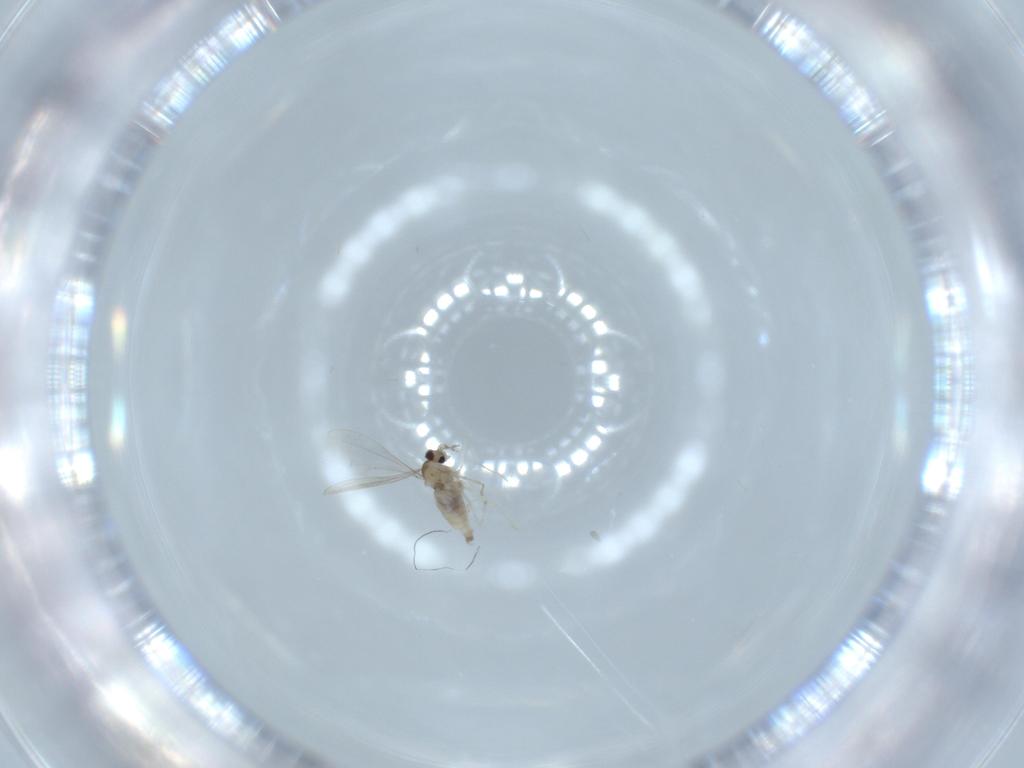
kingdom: Animalia
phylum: Arthropoda
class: Insecta
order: Diptera
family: Cecidomyiidae
